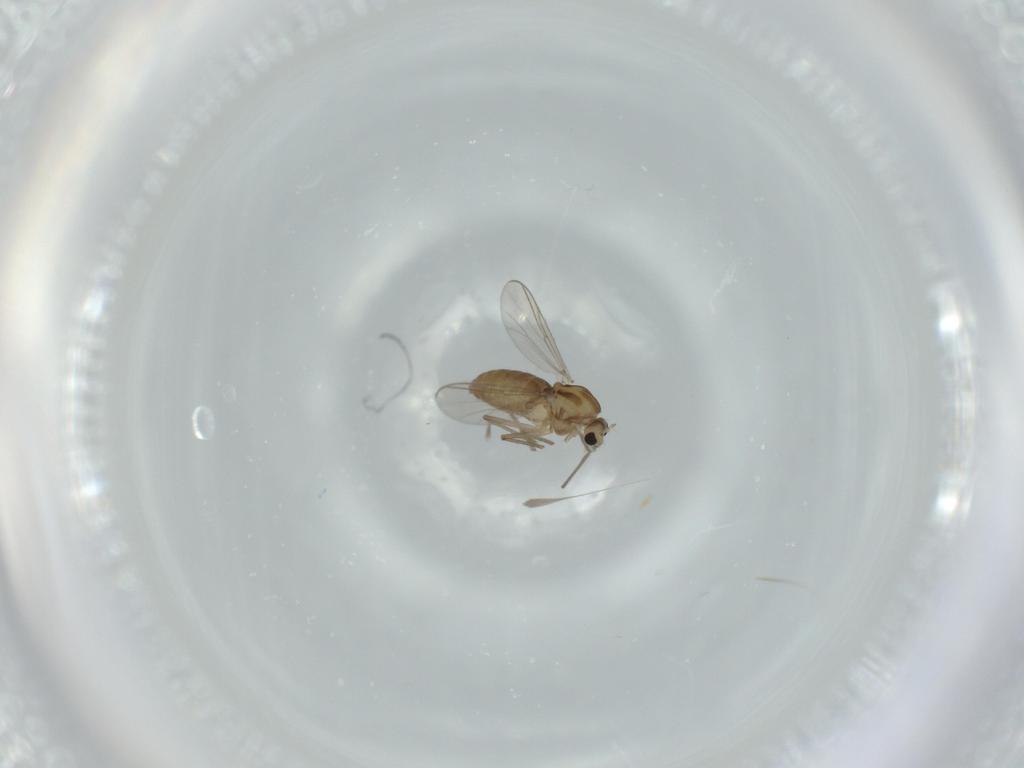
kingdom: Animalia
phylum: Arthropoda
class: Insecta
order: Diptera
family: Chironomidae
